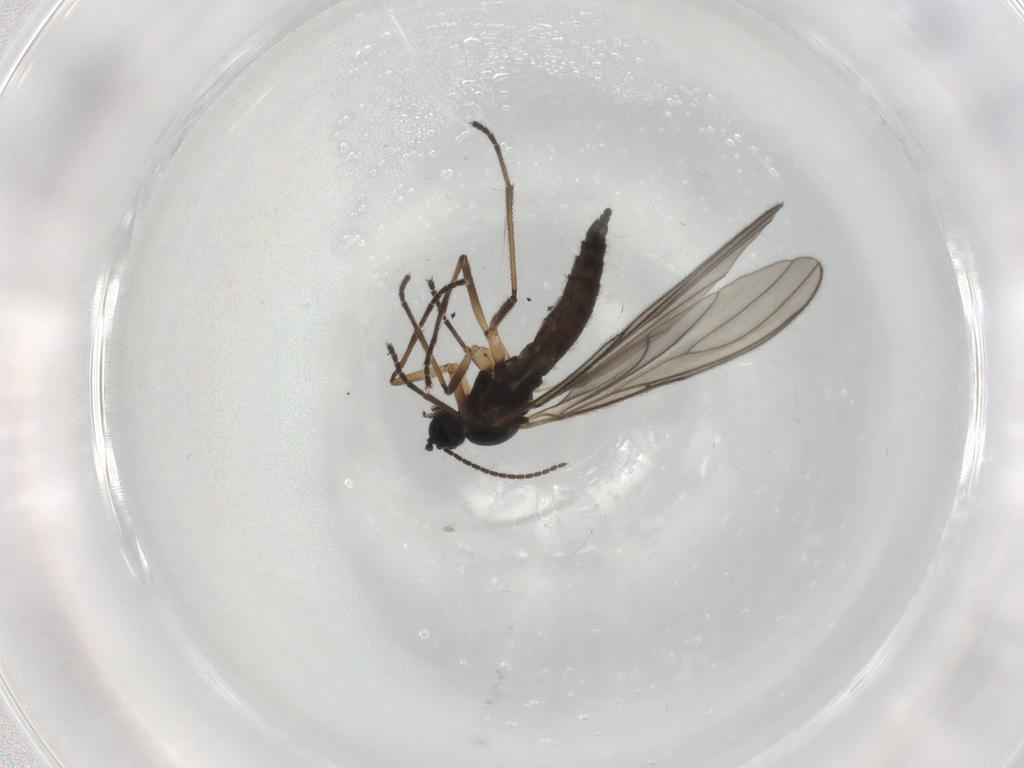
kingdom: Animalia
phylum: Arthropoda
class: Insecta
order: Diptera
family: Sciaridae
